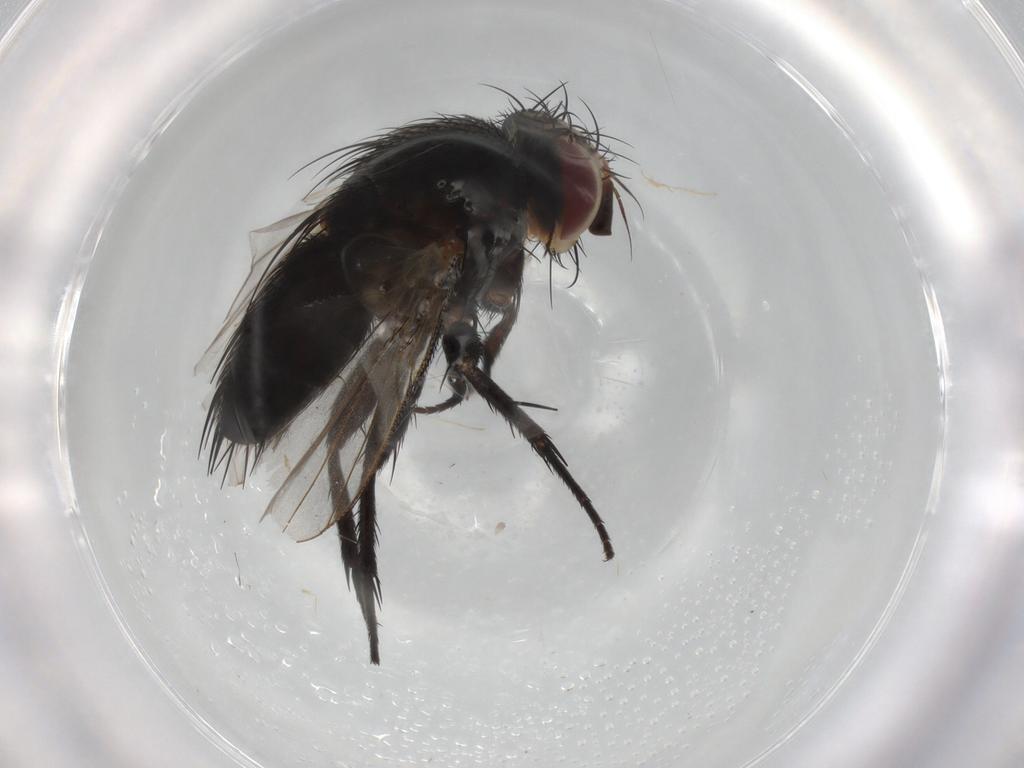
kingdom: Animalia
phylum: Arthropoda
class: Insecta
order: Diptera
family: Tachinidae
